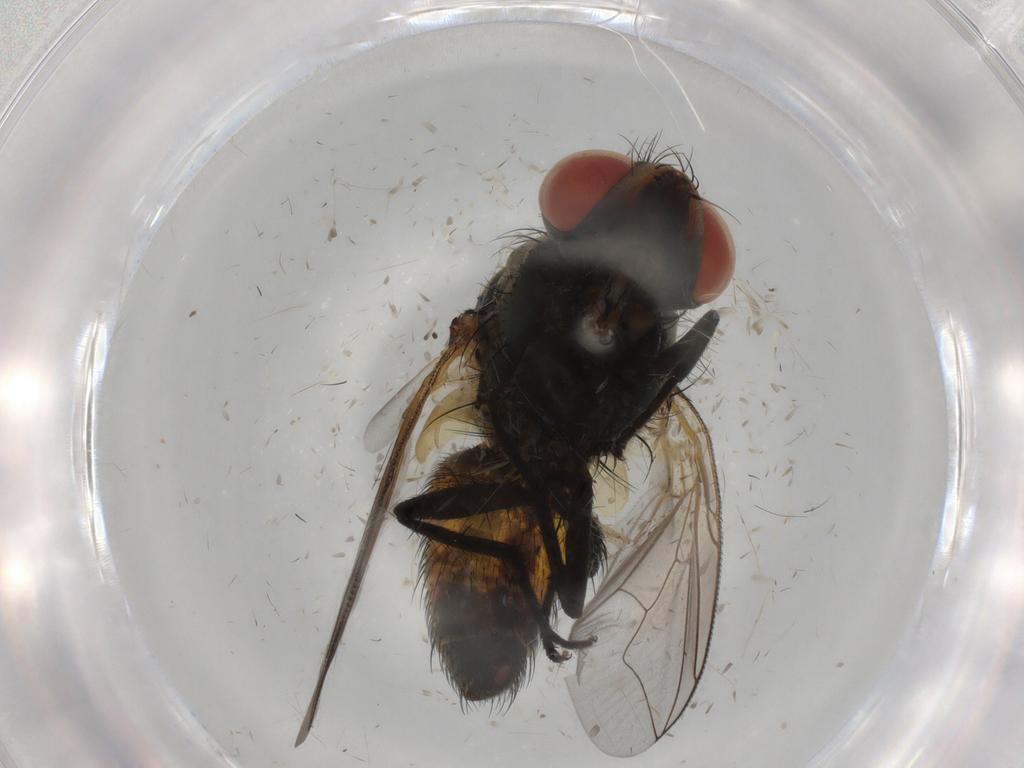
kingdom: Animalia
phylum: Arthropoda
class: Insecta
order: Diptera
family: Sarcophagidae
